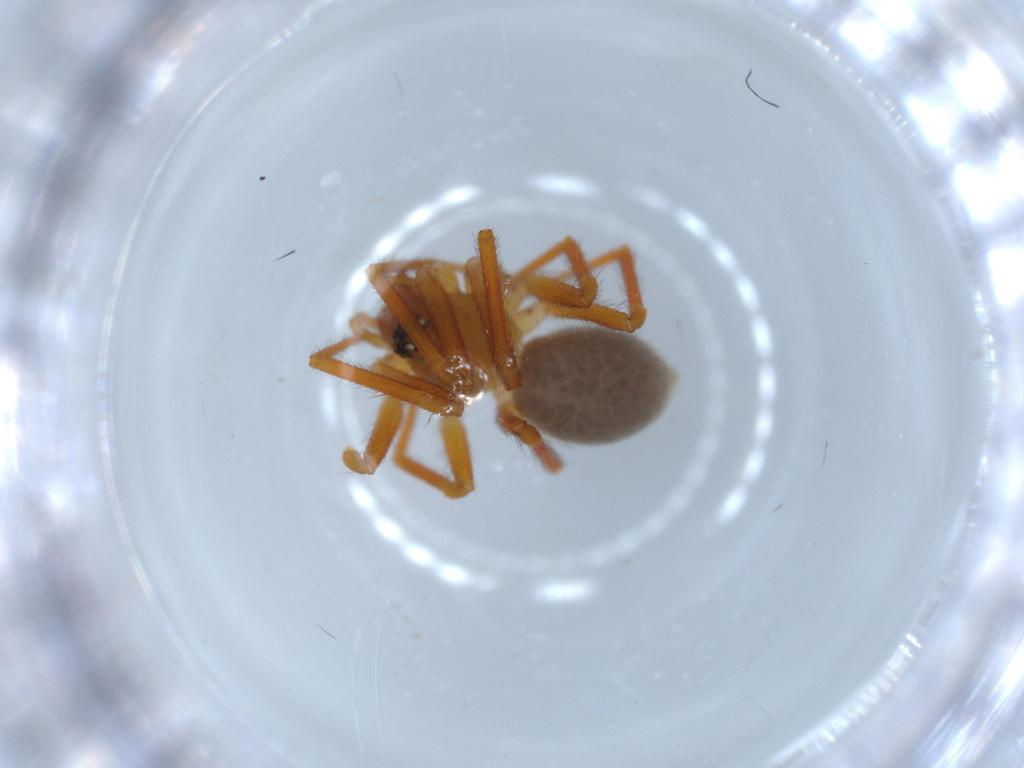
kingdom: Animalia
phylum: Arthropoda
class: Arachnida
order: Araneae
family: Linyphiidae
